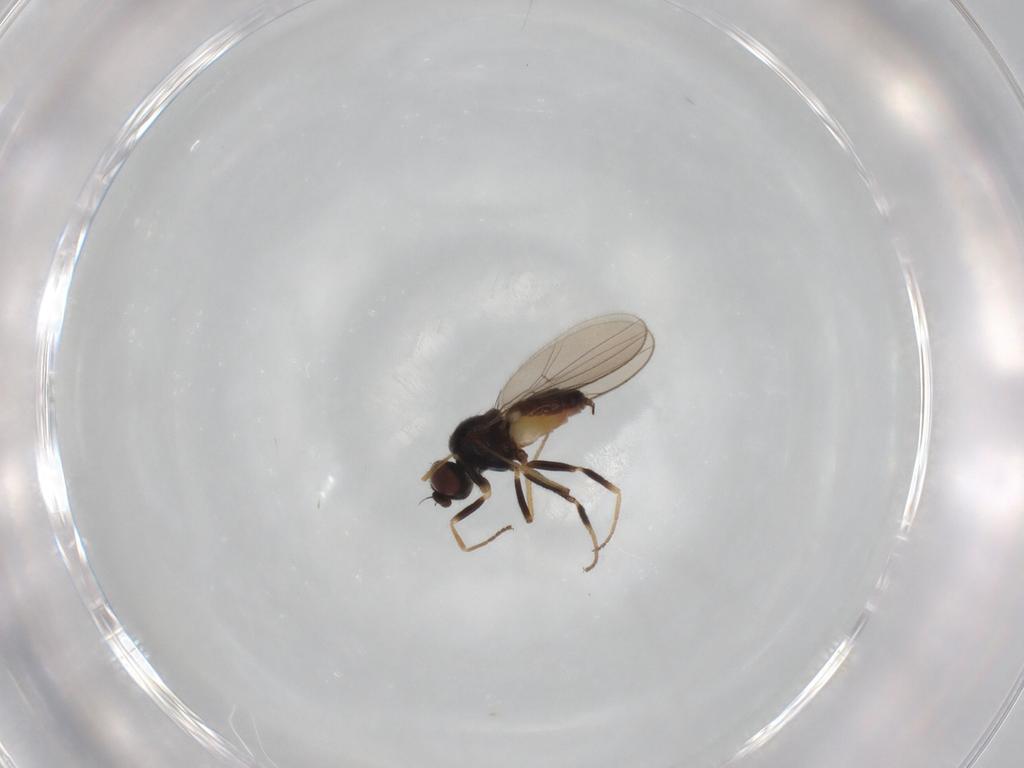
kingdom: Animalia
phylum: Arthropoda
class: Insecta
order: Diptera
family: Chloropidae
